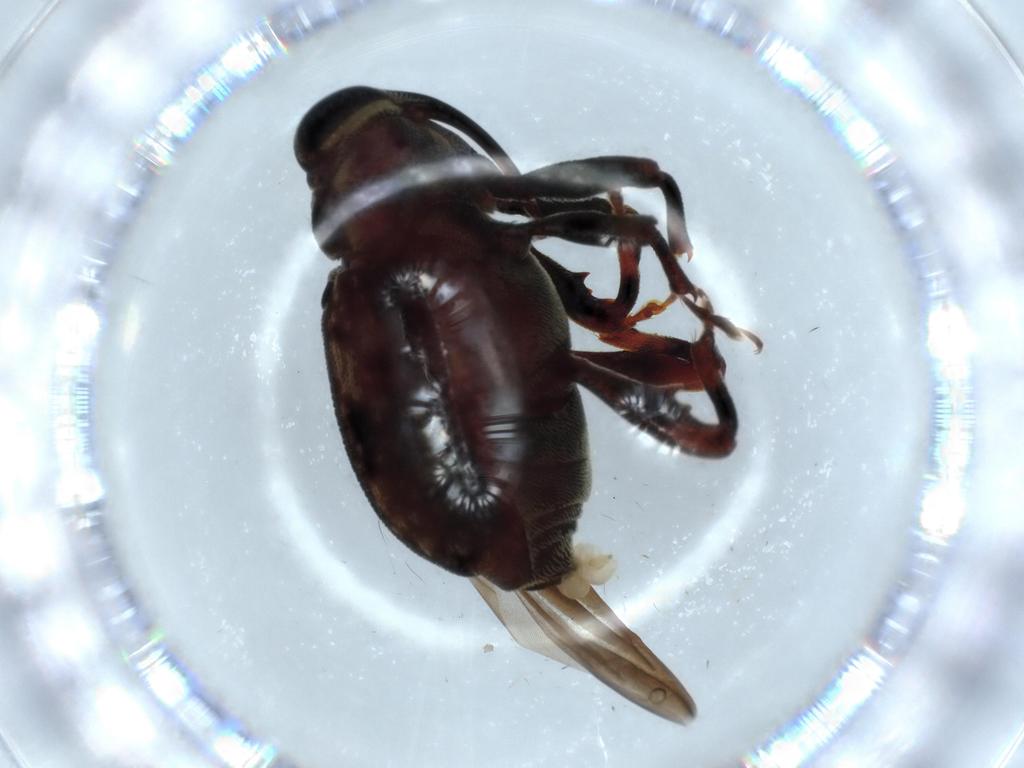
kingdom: Animalia
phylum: Arthropoda
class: Insecta
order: Coleoptera
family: Curculionidae
